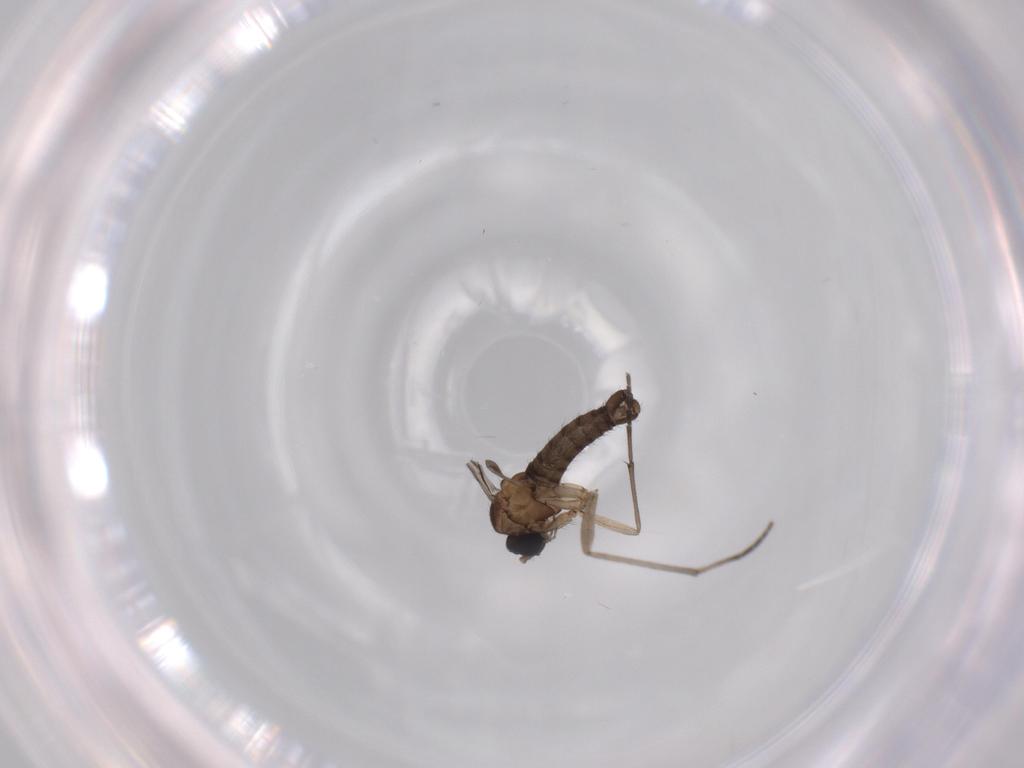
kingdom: Animalia
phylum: Arthropoda
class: Insecta
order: Diptera
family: Sciaridae
